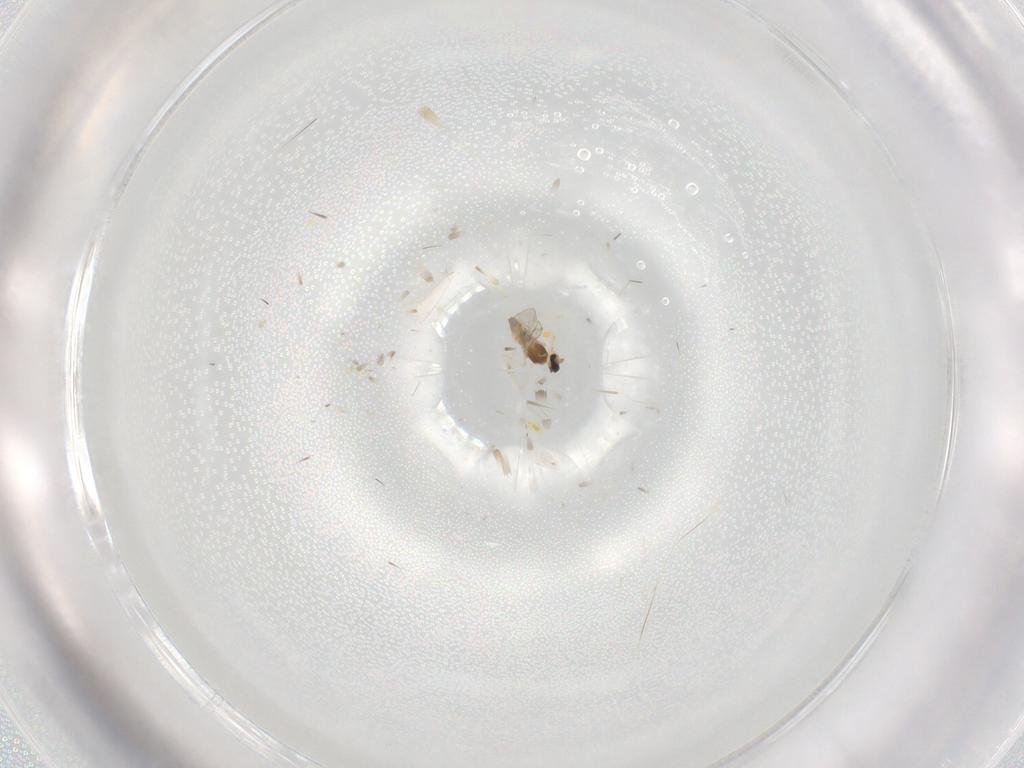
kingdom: Animalia
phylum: Arthropoda
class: Insecta
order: Diptera
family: Cecidomyiidae
